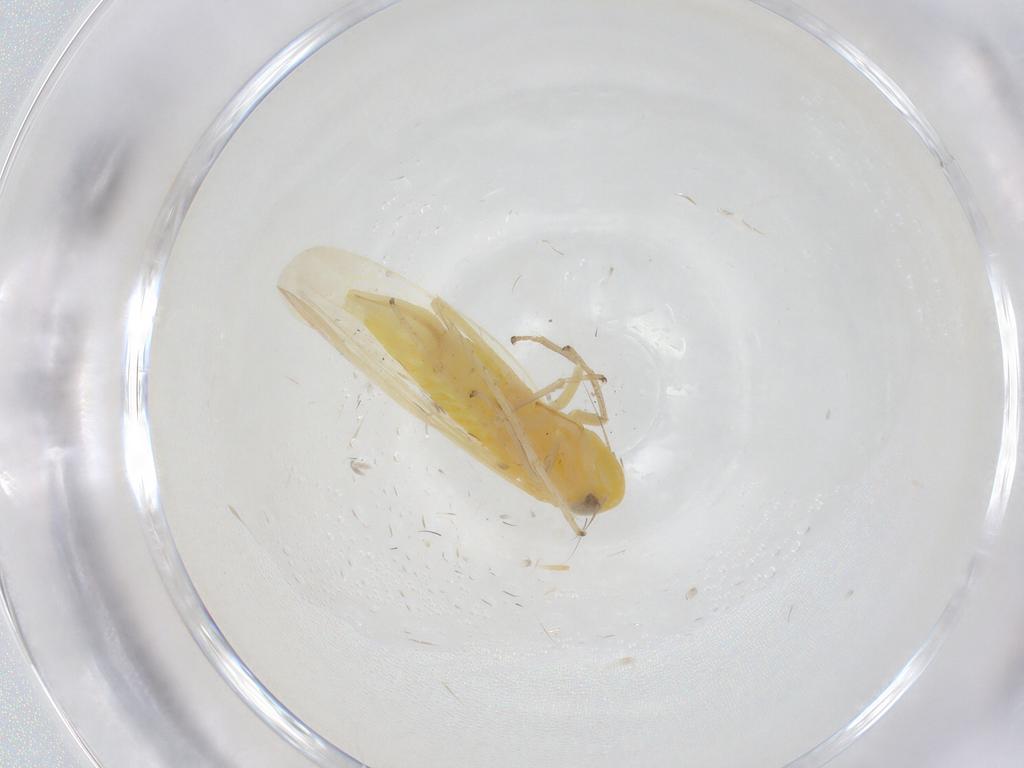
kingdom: Animalia
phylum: Arthropoda
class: Insecta
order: Hemiptera
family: Cicadellidae
